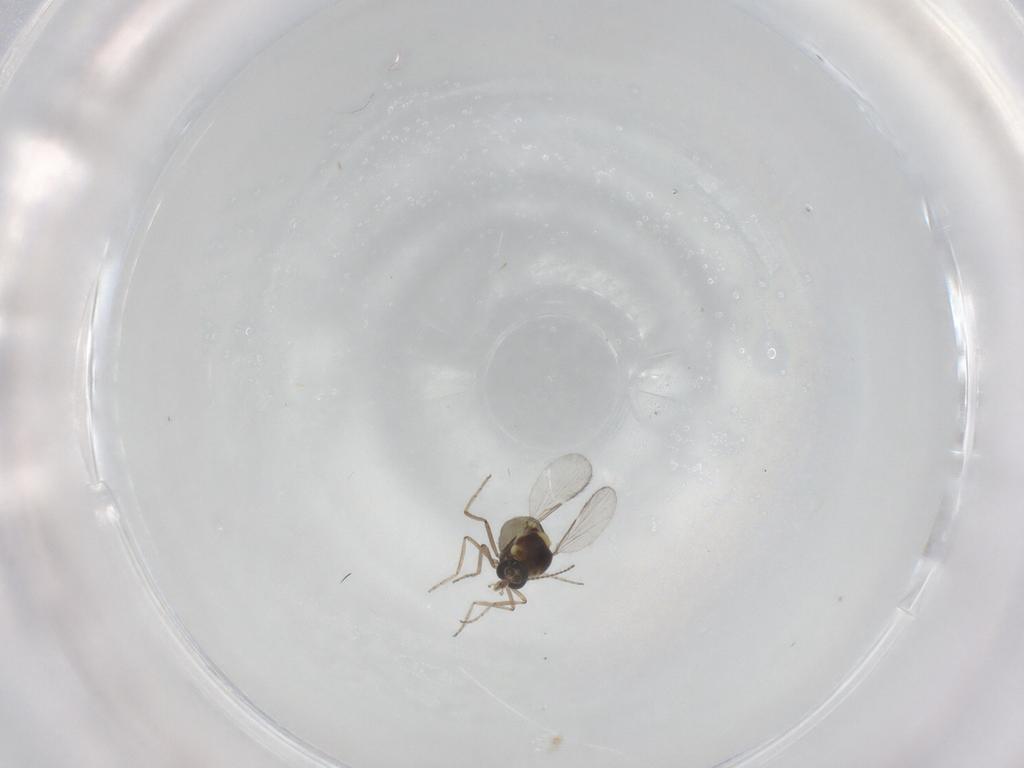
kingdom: Animalia
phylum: Arthropoda
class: Insecta
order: Diptera
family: Ceratopogonidae
